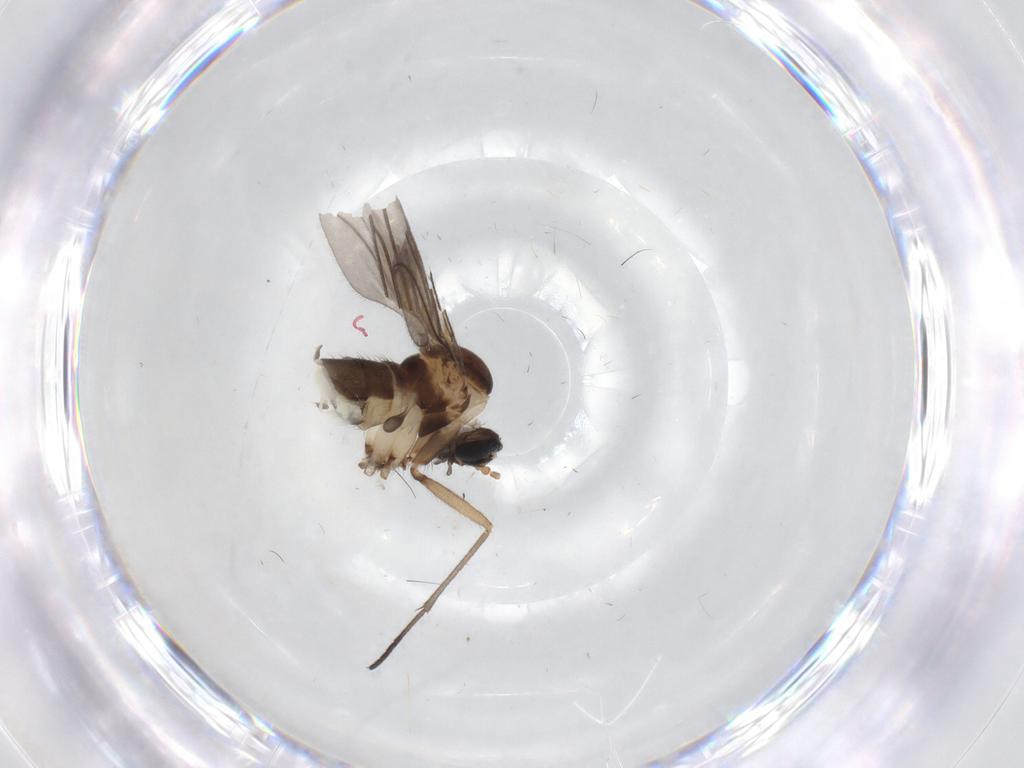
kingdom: Animalia
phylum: Arthropoda
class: Insecta
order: Diptera
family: Sciaridae
